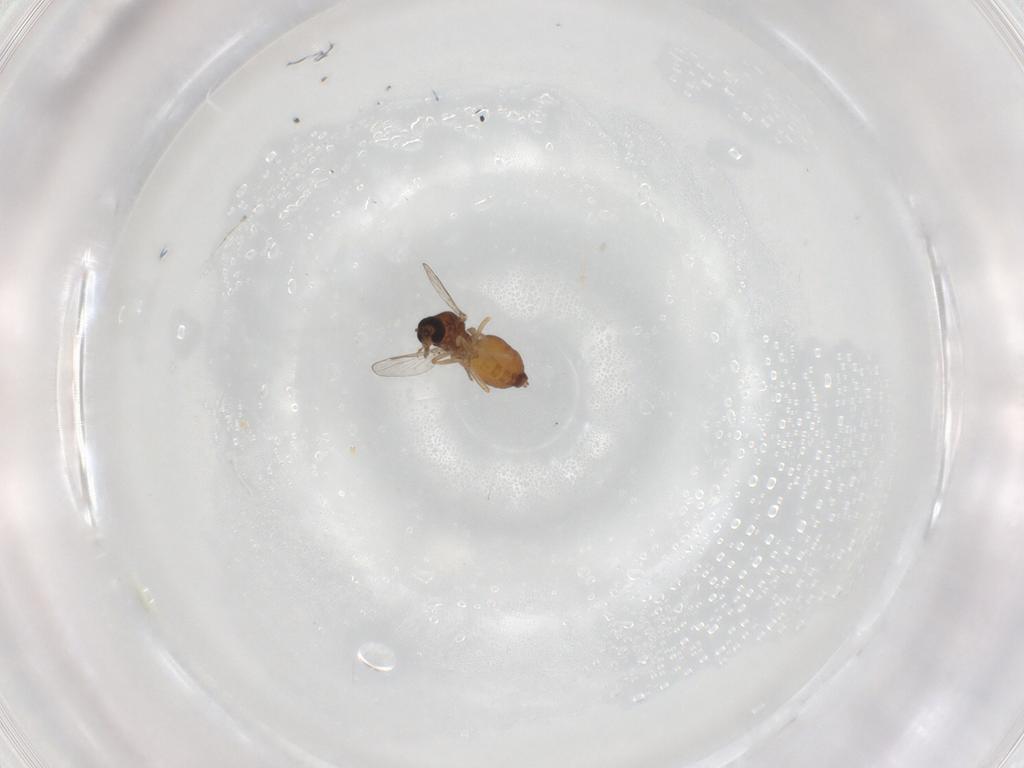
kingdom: Animalia
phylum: Arthropoda
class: Insecta
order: Diptera
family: Ceratopogonidae
